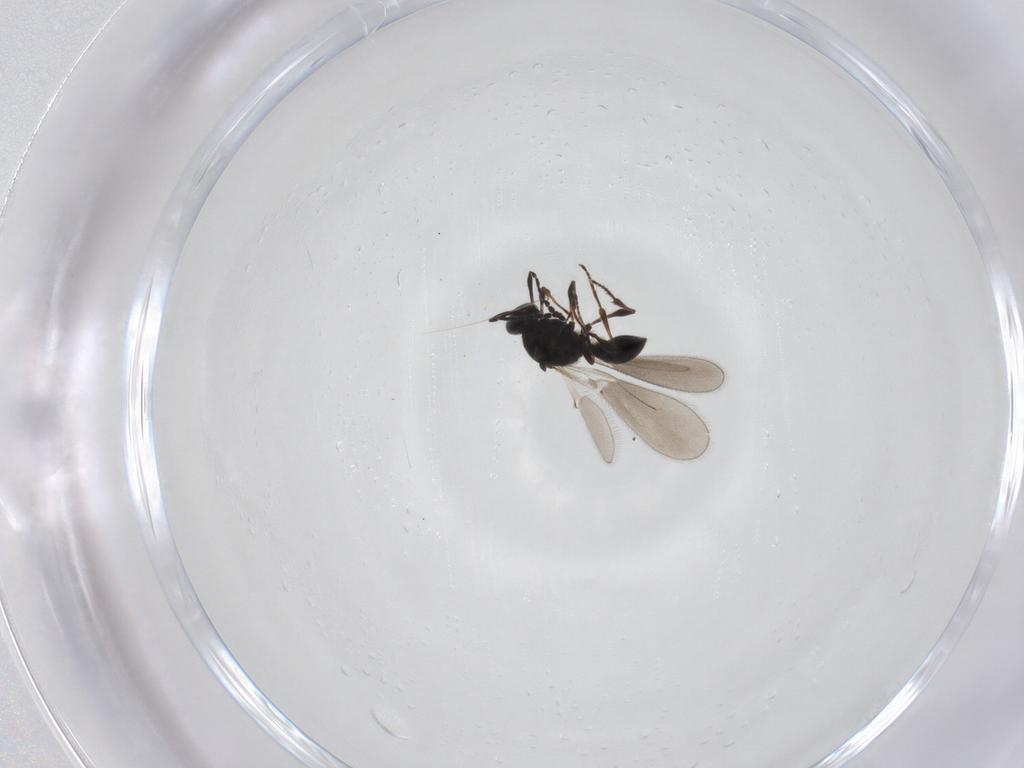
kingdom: Animalia
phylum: Arthropoda
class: Insecta
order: Hymenoptera
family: Platygastridae
